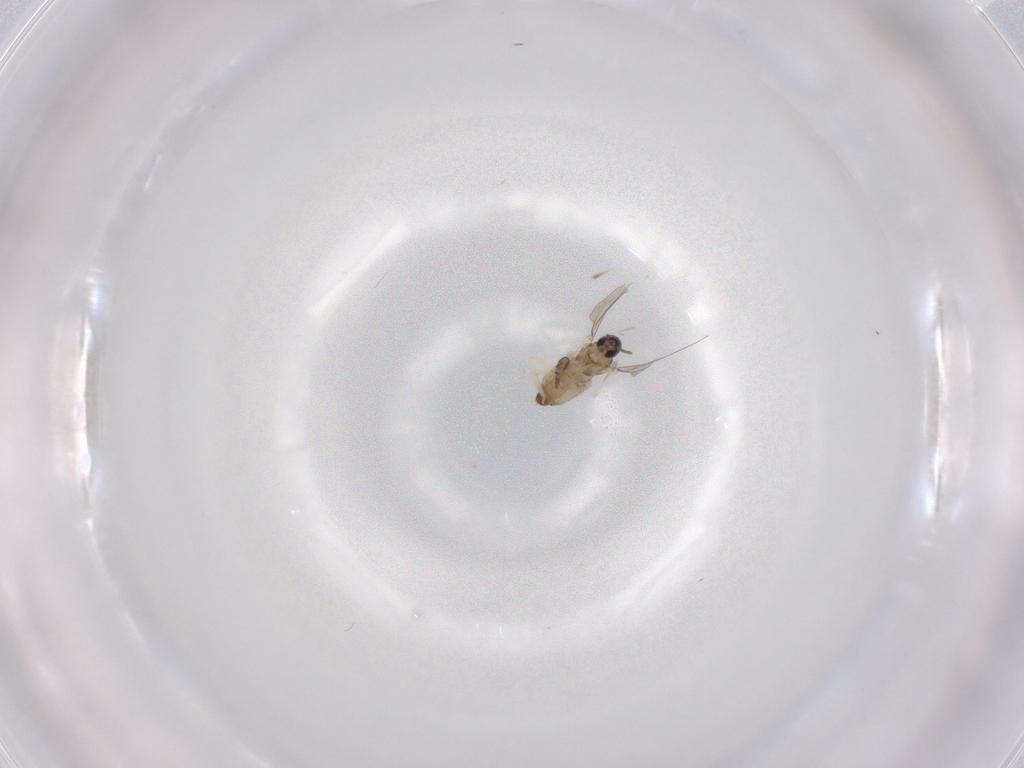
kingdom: Animalia
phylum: Arthropoda
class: Insecta
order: Diptera
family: Cecidomyiidae
